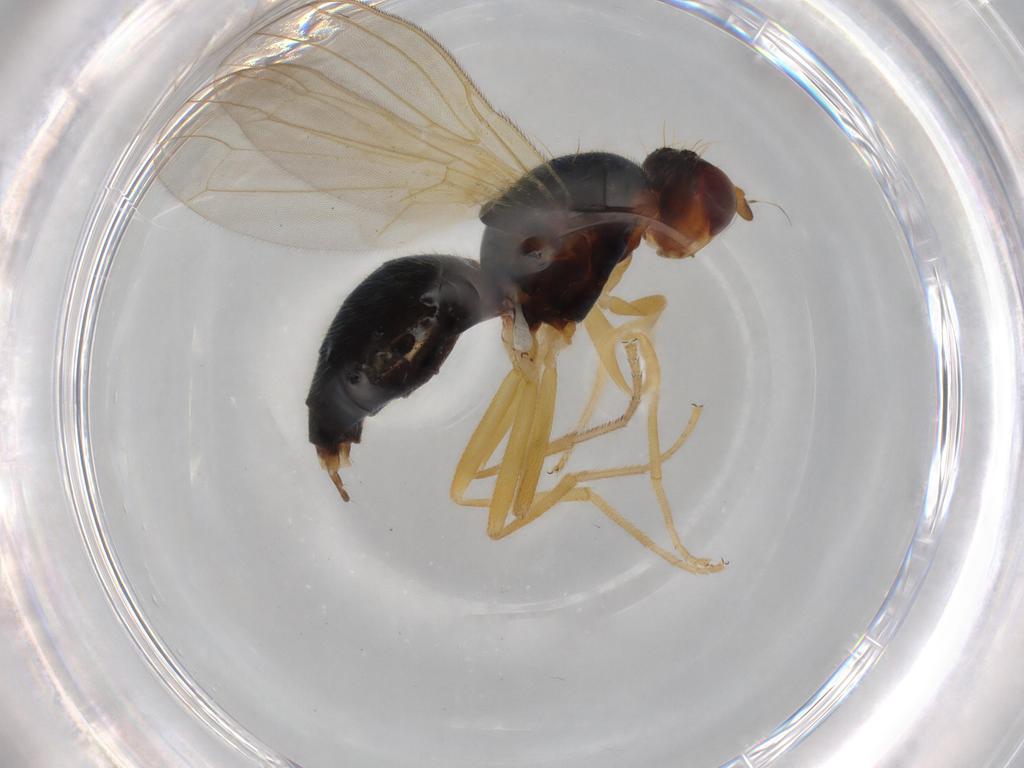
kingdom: Animalia
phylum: Arthropoda
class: Insecta
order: Diptera
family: Psilidae
